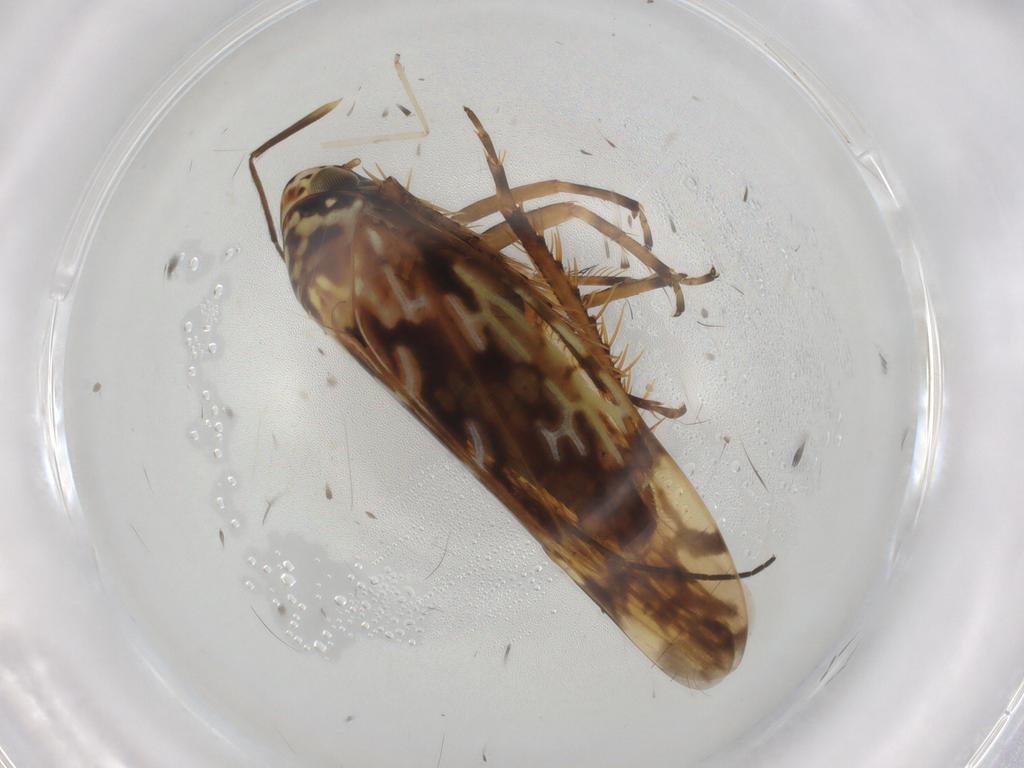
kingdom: Animalia
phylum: Arthropoda
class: Insecta
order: Hemiptera
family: Cicadellidae
